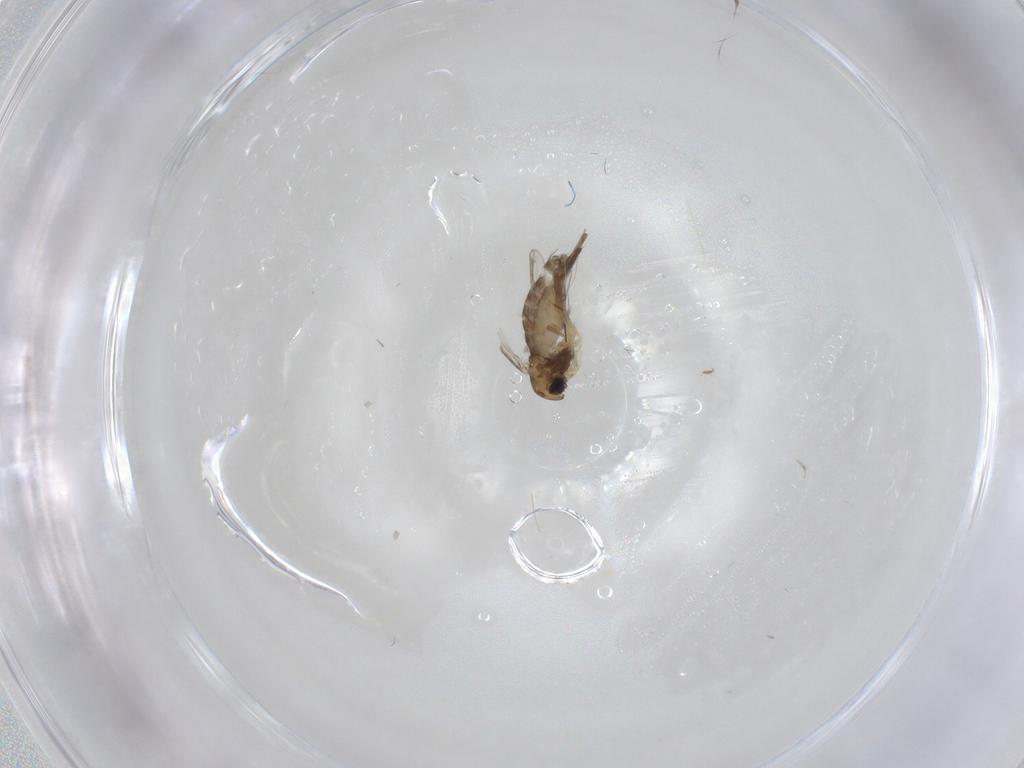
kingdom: Animalia
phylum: Arthropoda
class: Insecta
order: Diptera
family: Chironomidae
